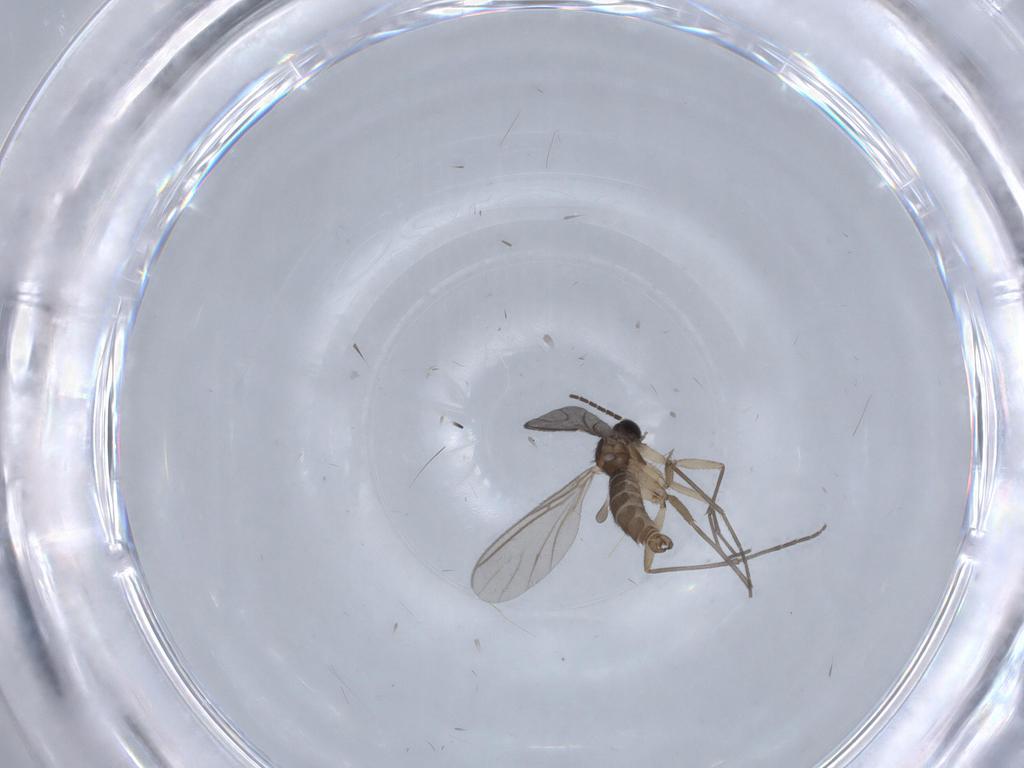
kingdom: Animalia
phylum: Arthropoda
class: Insecta
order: Diptera
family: Sciaridae
